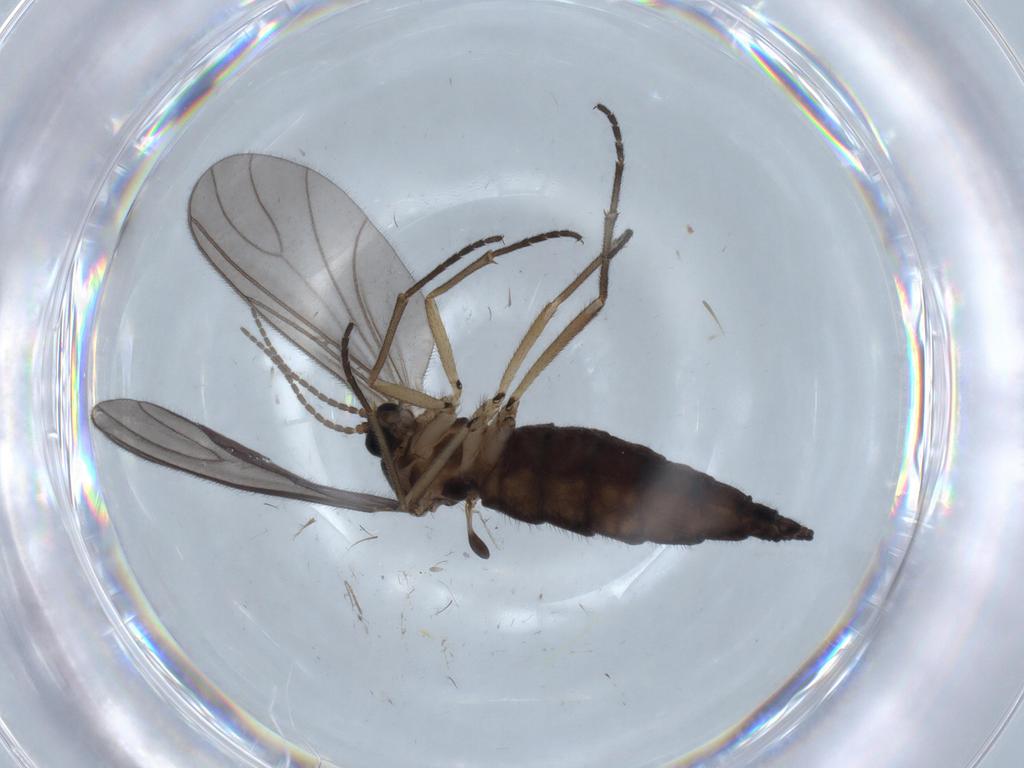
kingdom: Animalia
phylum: Arthropoda
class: Insecta
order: Diptera
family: Sciaridae
